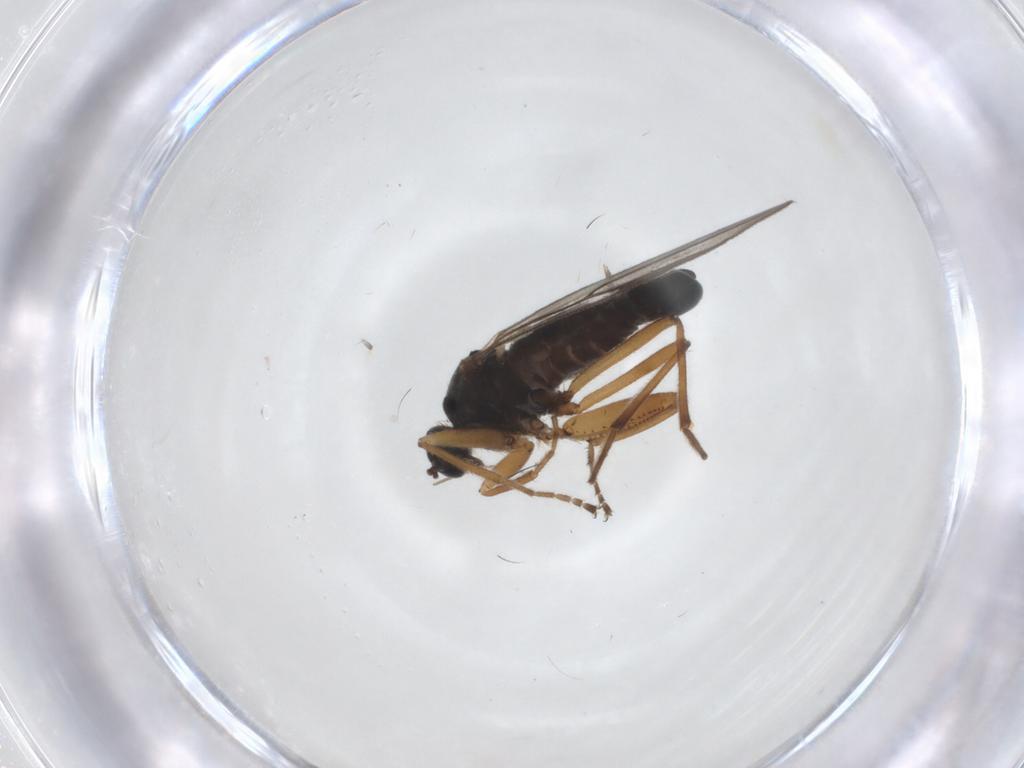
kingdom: Animalia
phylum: Arthropoda
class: Insecta
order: Diptera
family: Hybotidae
